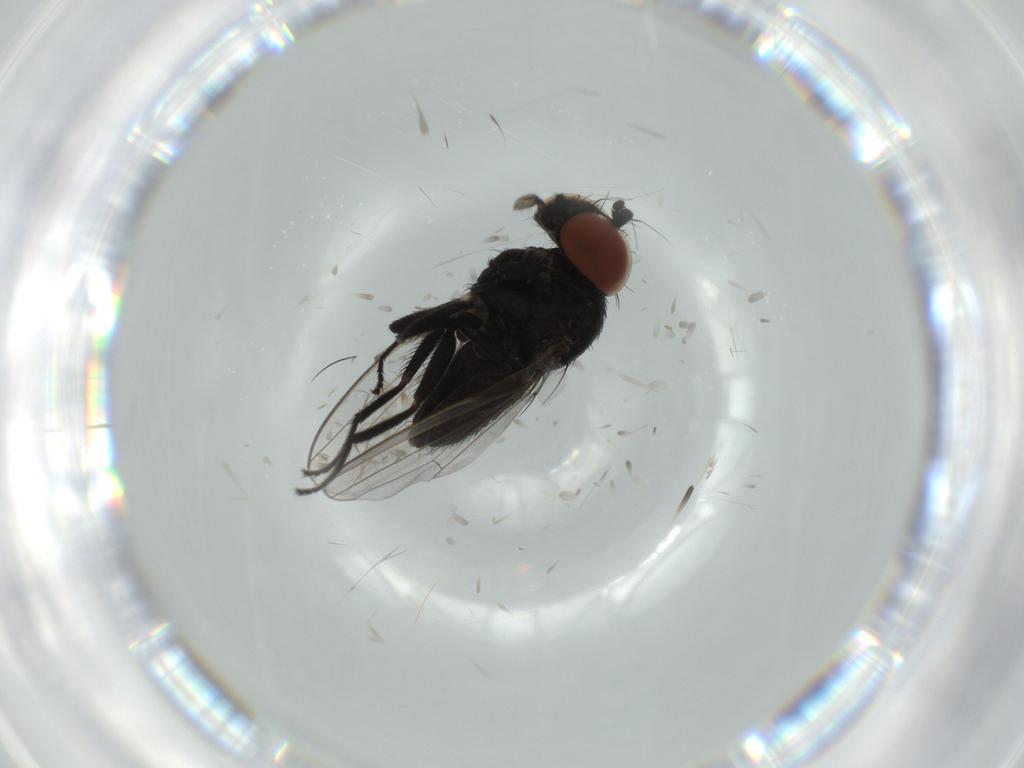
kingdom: Animalia
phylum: Arthropoda
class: Insecta
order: Diptera
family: Milichiidae
